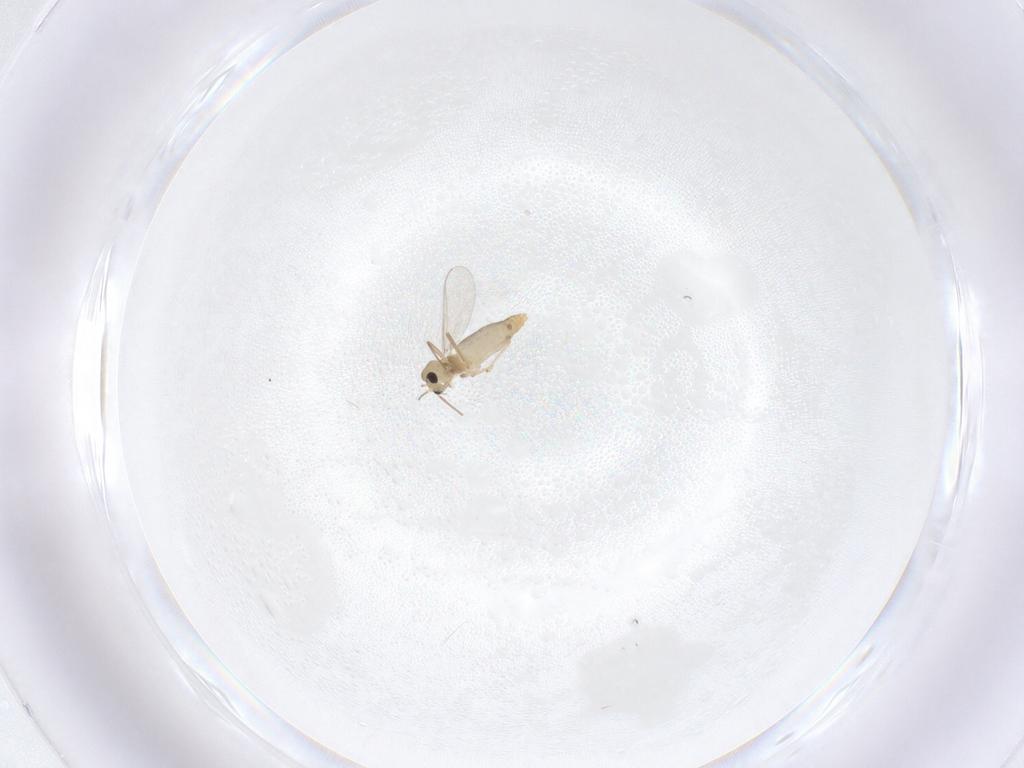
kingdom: Animalia
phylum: Arthropoda
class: Insecta
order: Diptera
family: Chironomidae
